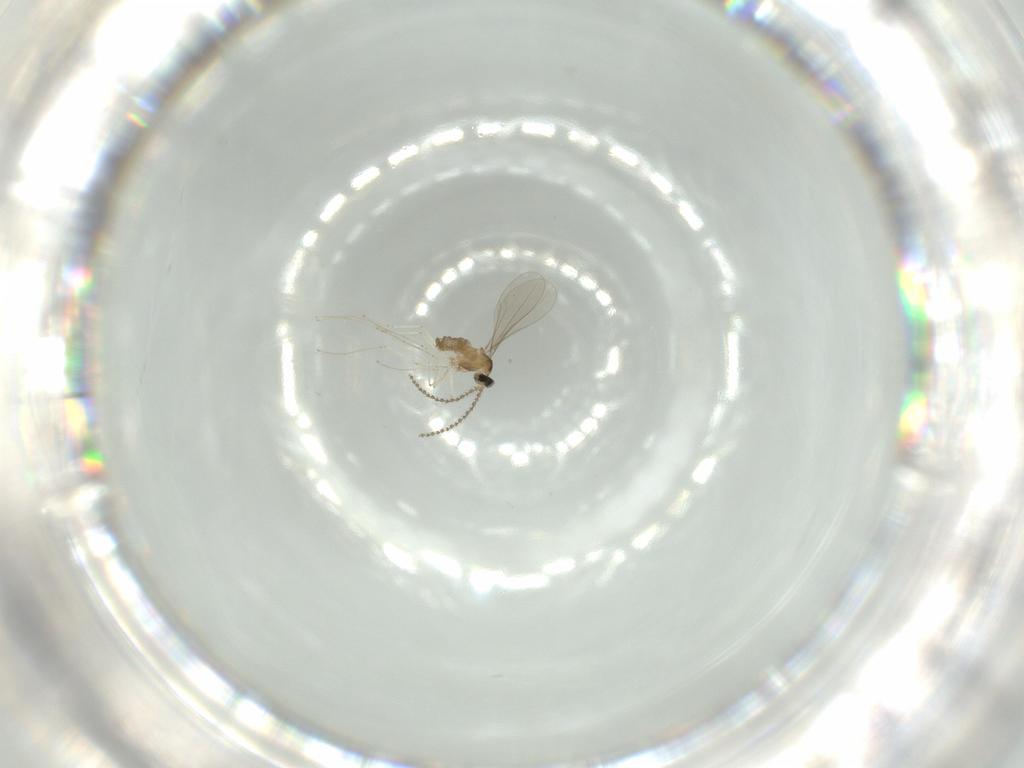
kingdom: Animalia
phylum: Arthropoda
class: Insecta
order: Diptera
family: Cecidomyiidae
